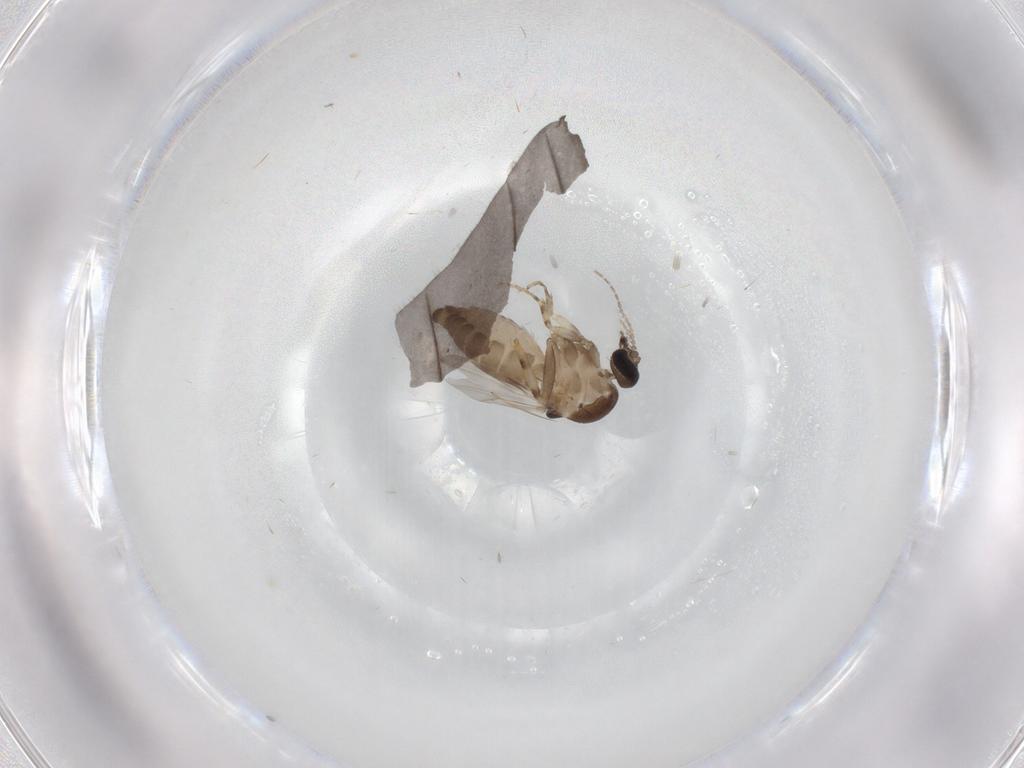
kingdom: Animalia
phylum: Arthropoda
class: Insecta
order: Diptera
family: Ceratopogonidae
